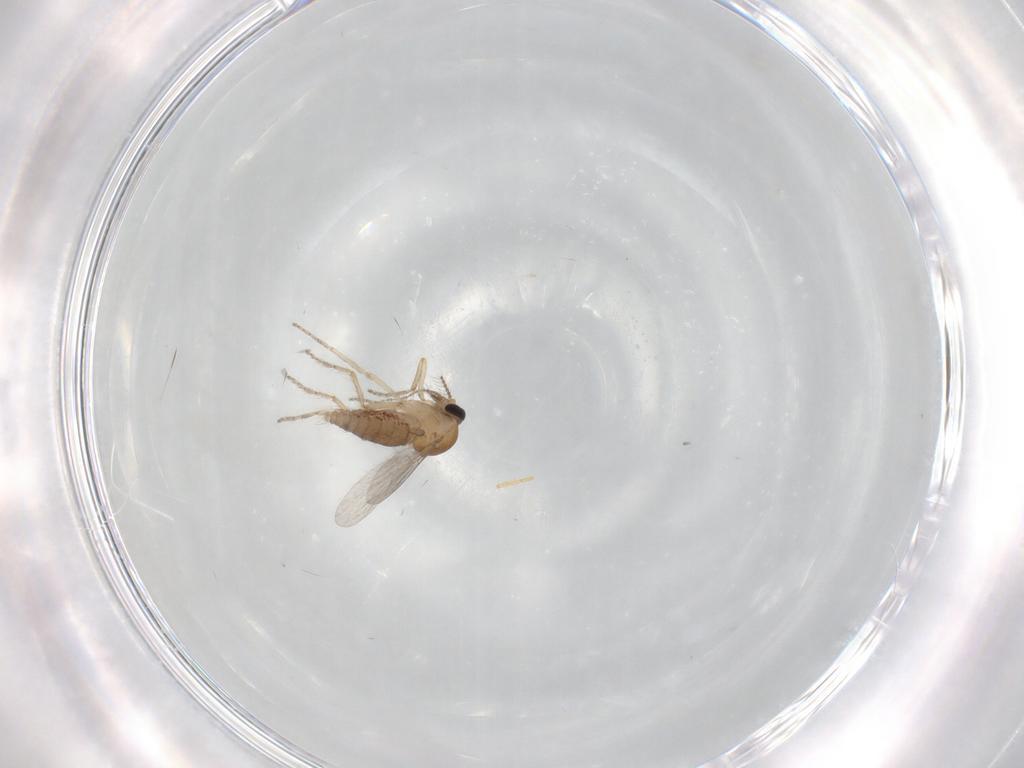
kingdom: Animalia
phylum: Arthropoda
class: Insecta
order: Diptera
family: Ceratopogonidae
